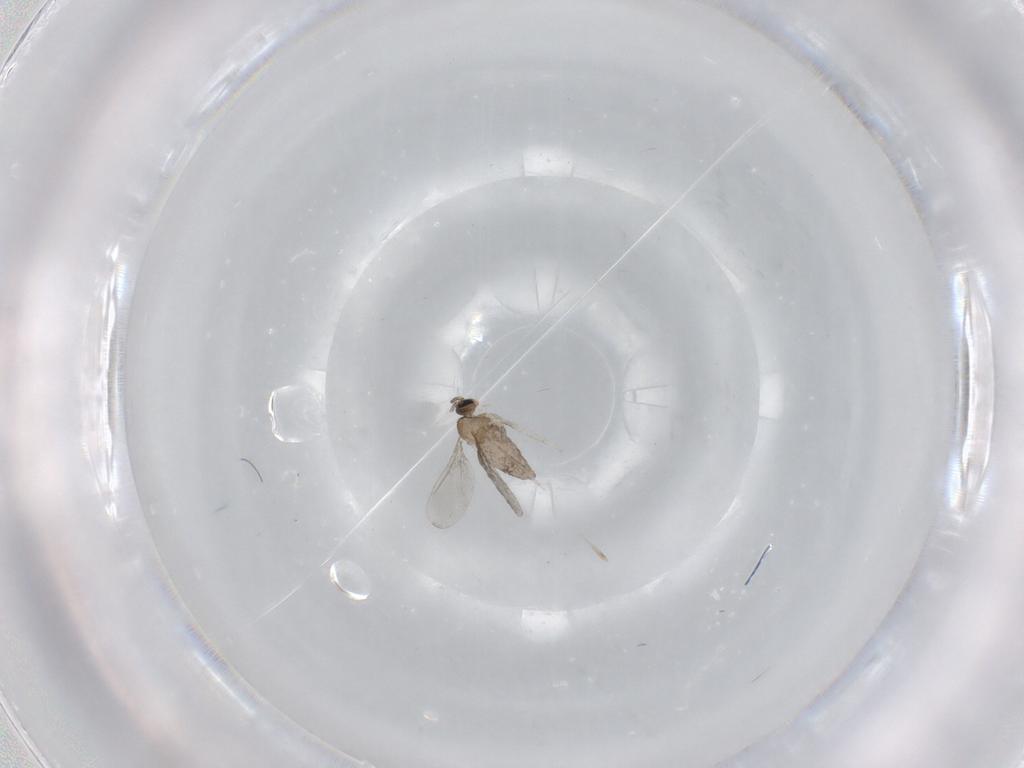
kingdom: Animalia
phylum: Arthropoda
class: Insecta
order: Diptera
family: Cecidomyiidae
